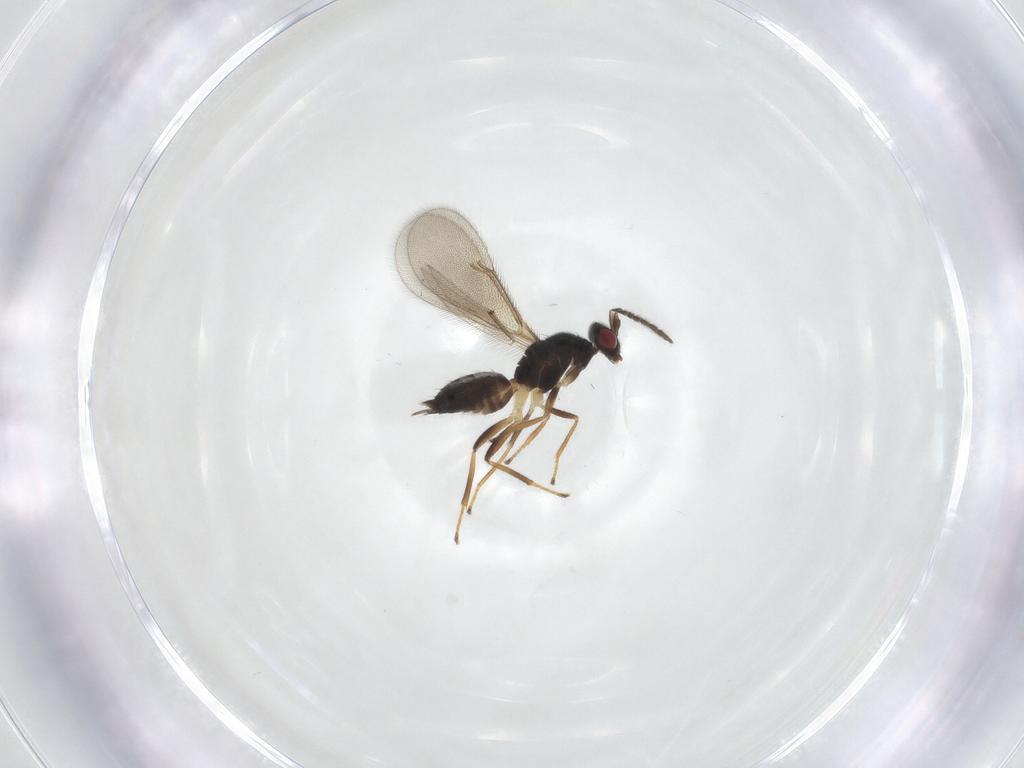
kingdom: Animalia
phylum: Arthropoda
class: Insecta
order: Hymenoptera
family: Eulophidae
